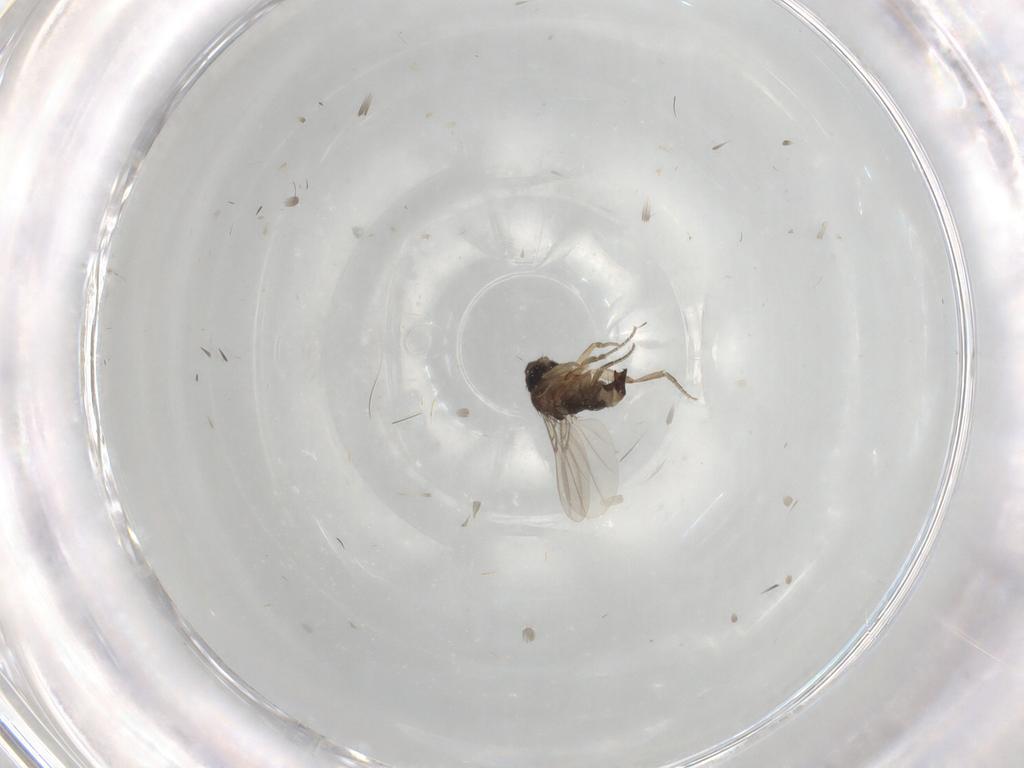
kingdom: Animalia
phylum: Arthropoda
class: Insecta
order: Diptera
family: Phoridae
